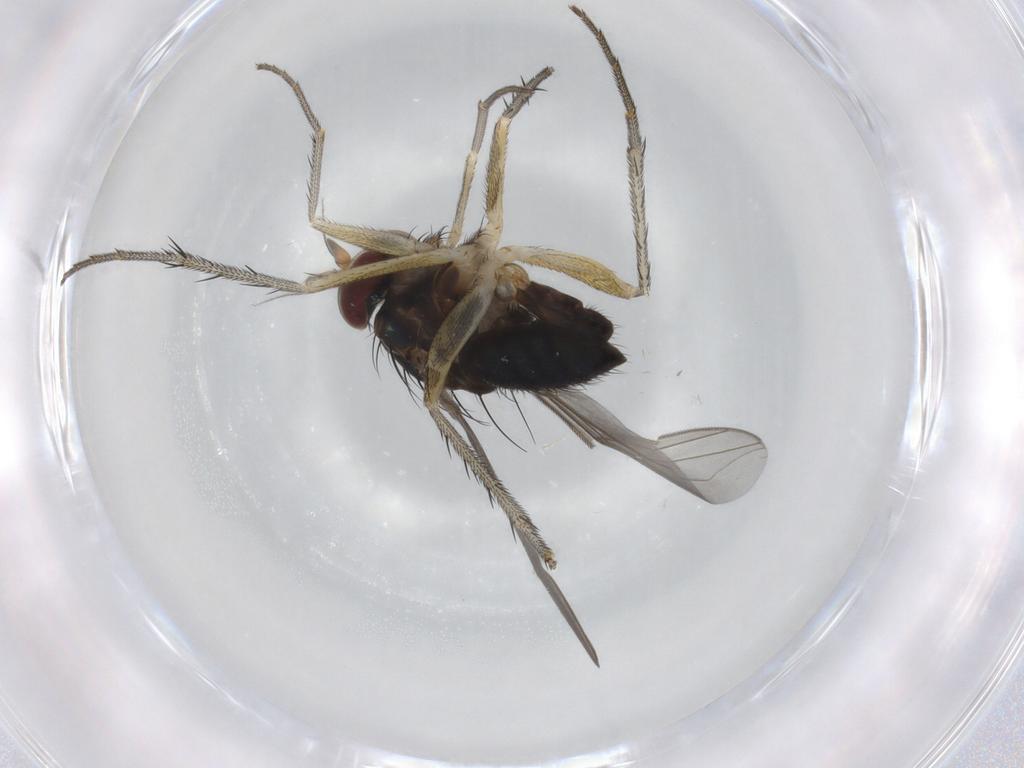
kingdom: Animalia
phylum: Arthropoda
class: Insecta
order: Diptera
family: Dolichopodidae
